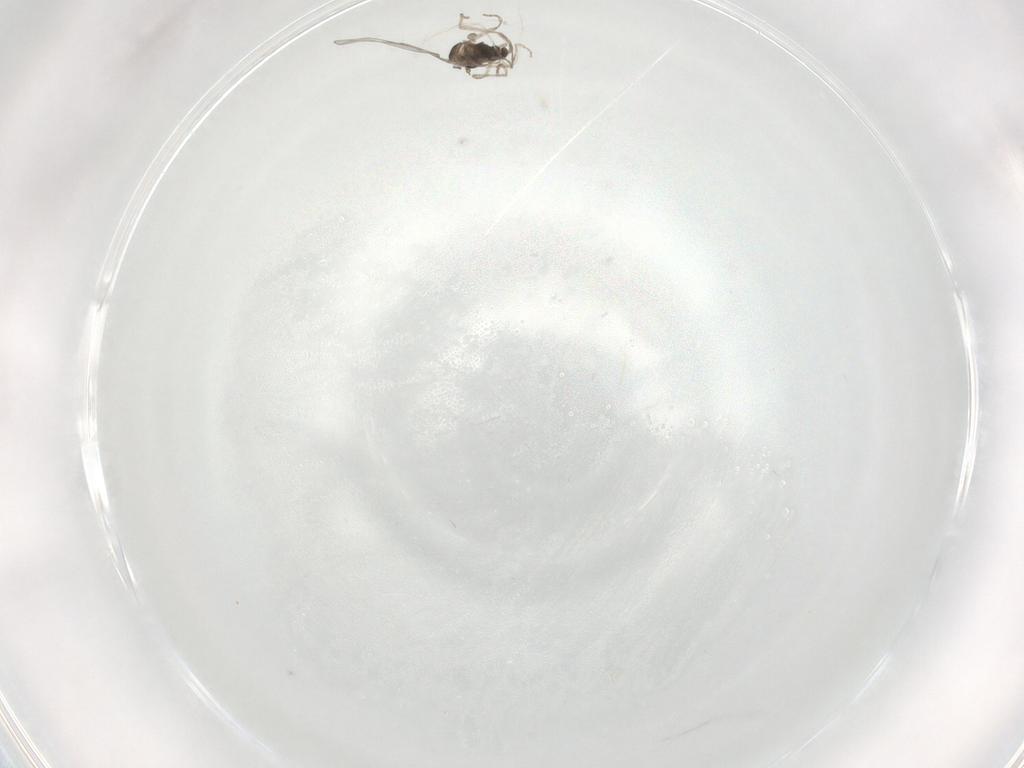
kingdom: Animalia
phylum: Arthropoda
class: Insecta
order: Diptera
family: Cecidomyiidae
